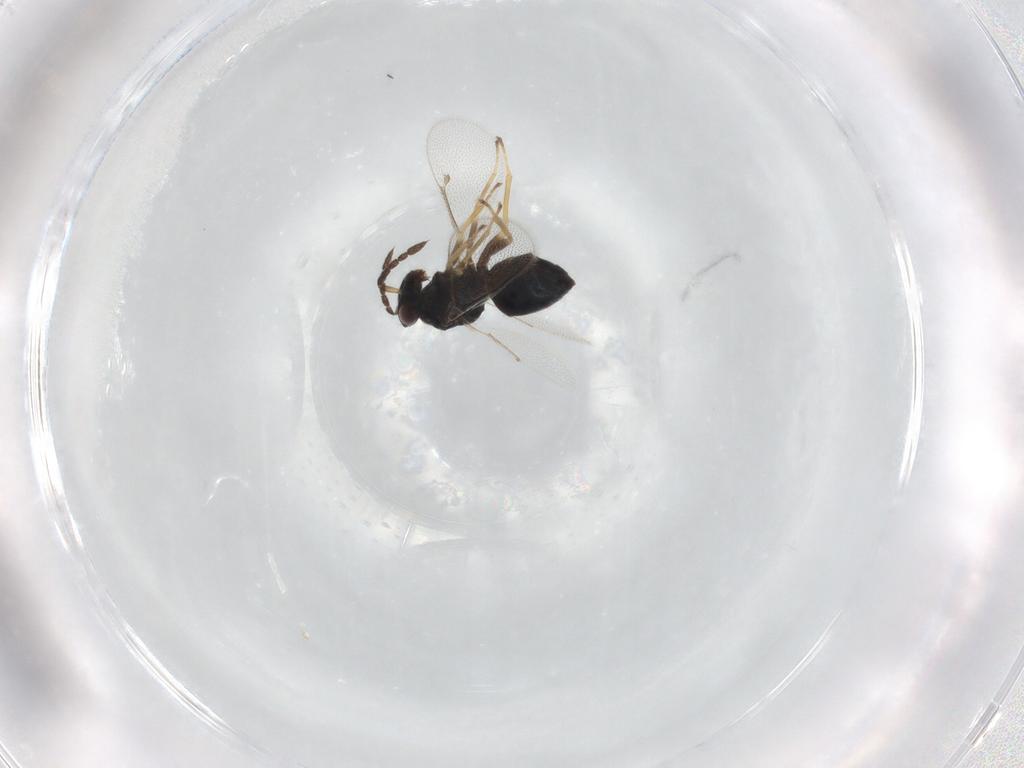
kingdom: Animalia
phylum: Arthropoda
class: Insecta
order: Hymenoptera
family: Eulophidae
